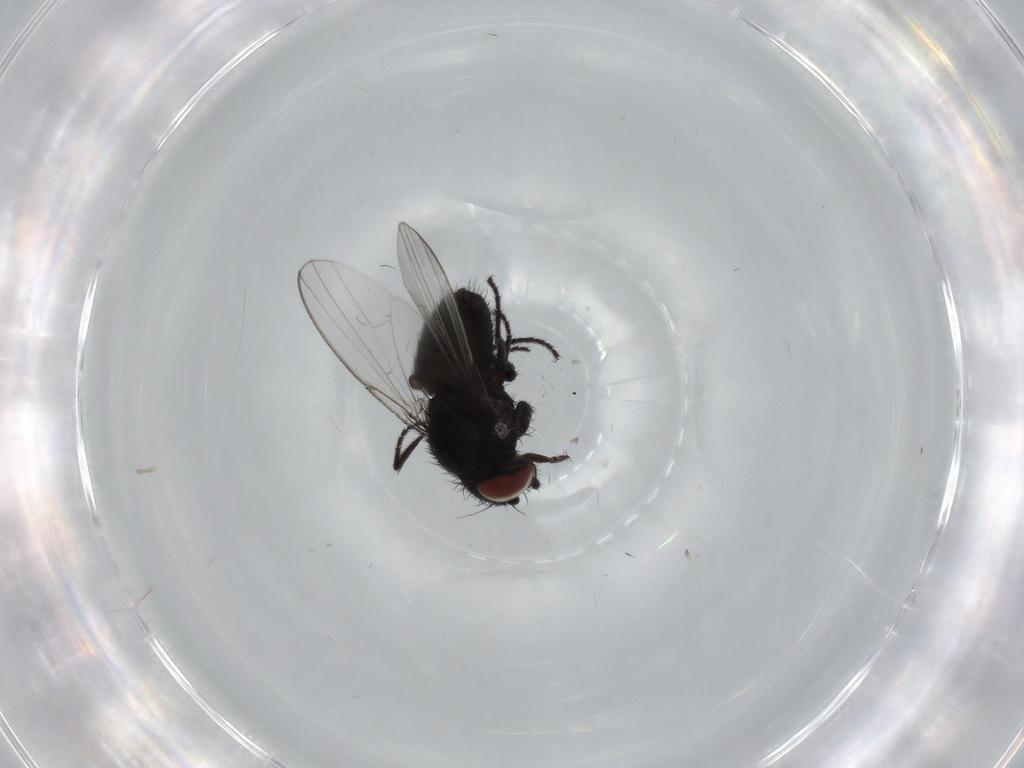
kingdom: Animalia
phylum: Arthropoda
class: Insecta
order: Diptera
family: Milichiidae
